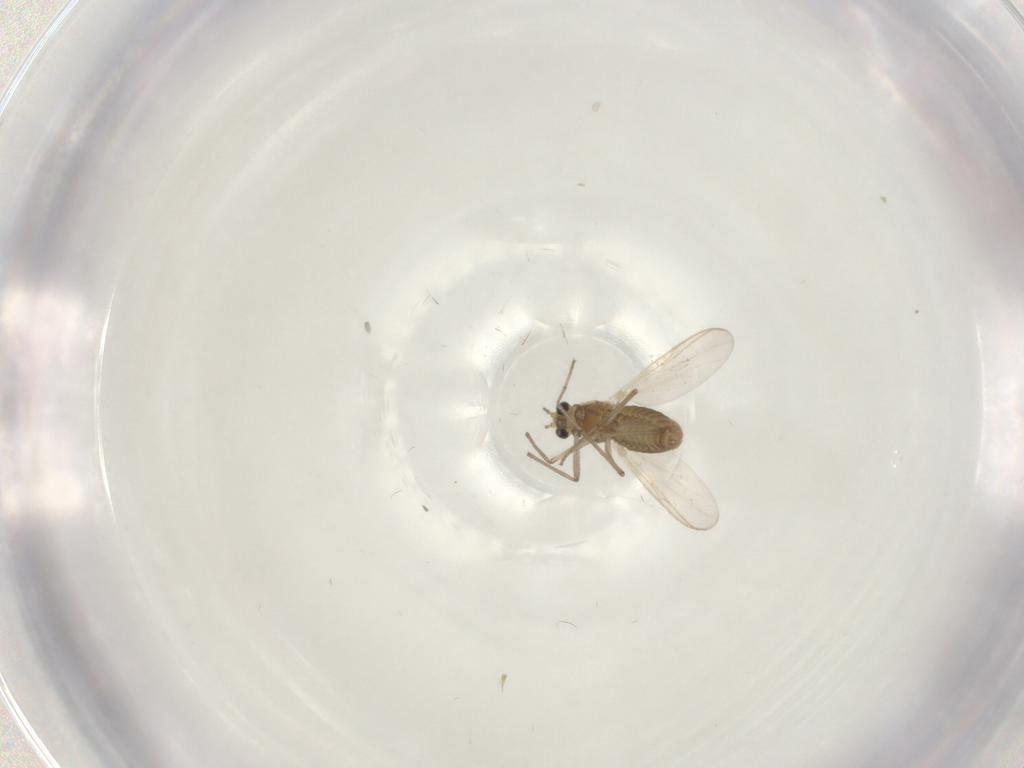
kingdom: Animalia
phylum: Arthropoda
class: Insecta
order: Diptera
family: Chironomidae
